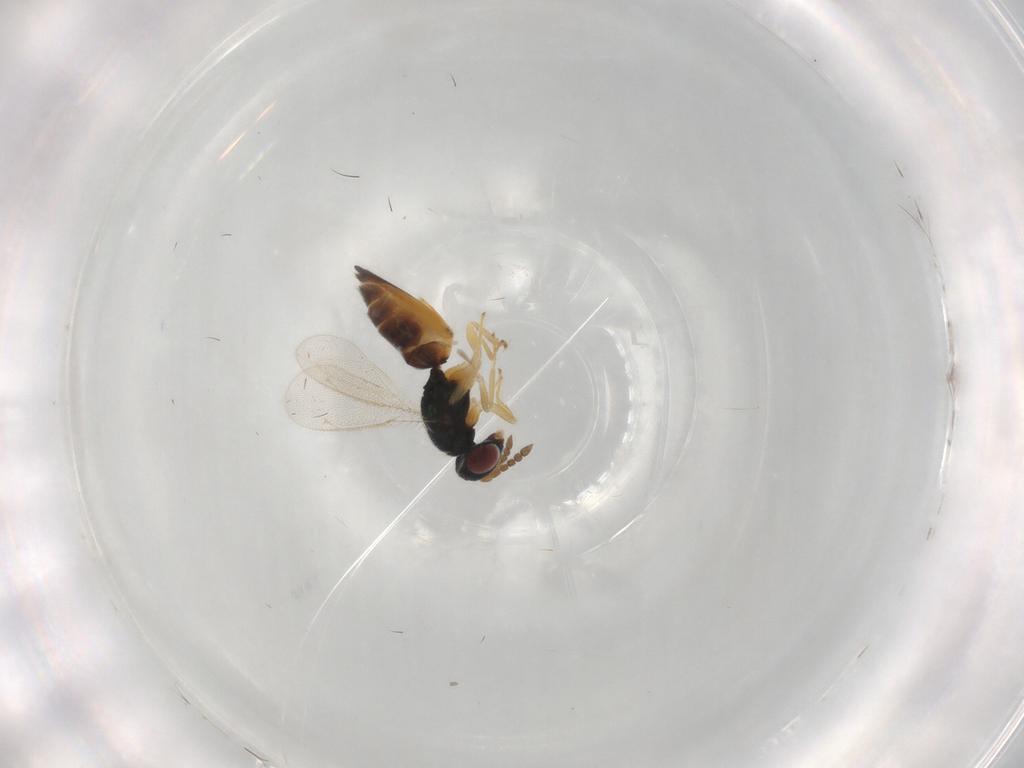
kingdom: Animalia
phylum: Arthropoda
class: Insecta
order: Hymenoptera
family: Eulophidae
